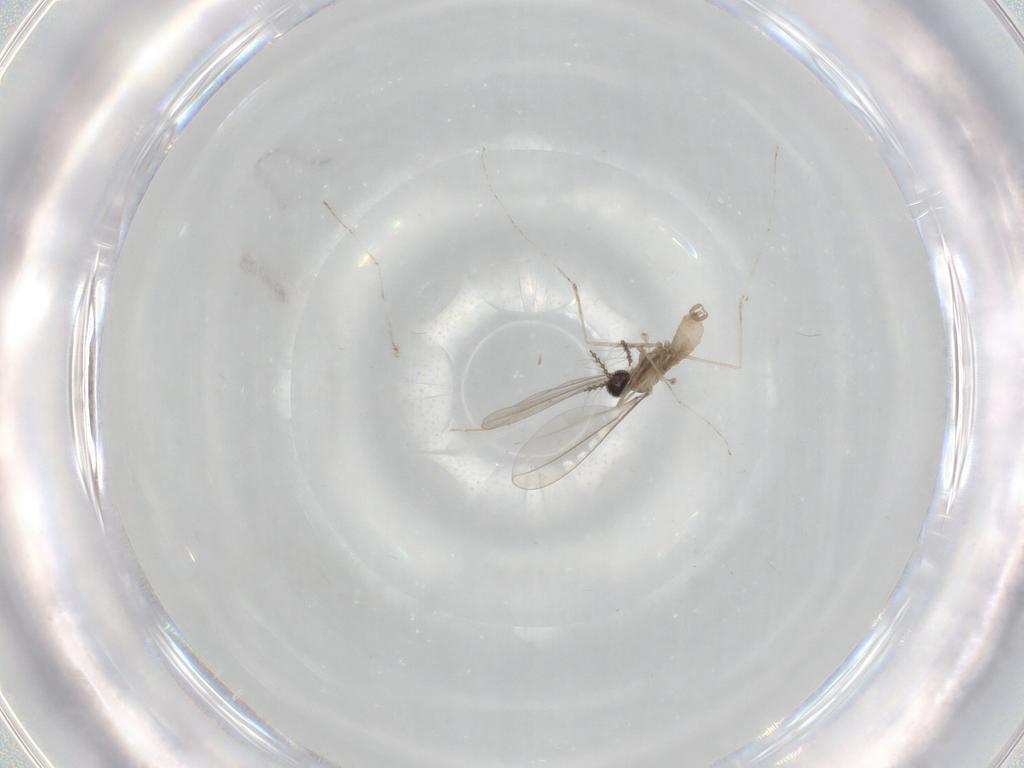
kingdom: Animalia
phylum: Arthropoda
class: Insecta
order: Diptera
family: Cecidomyiidae
